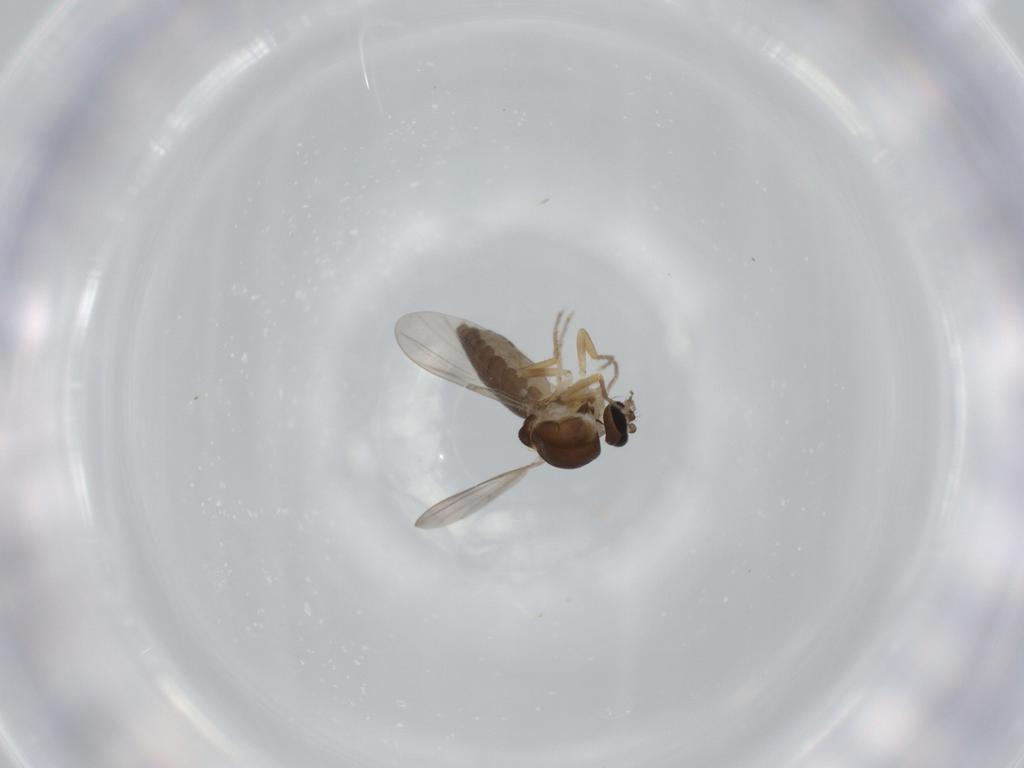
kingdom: Animalia
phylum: Arthropoda
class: Insecta
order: Diptera
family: Ceratopogonidae
